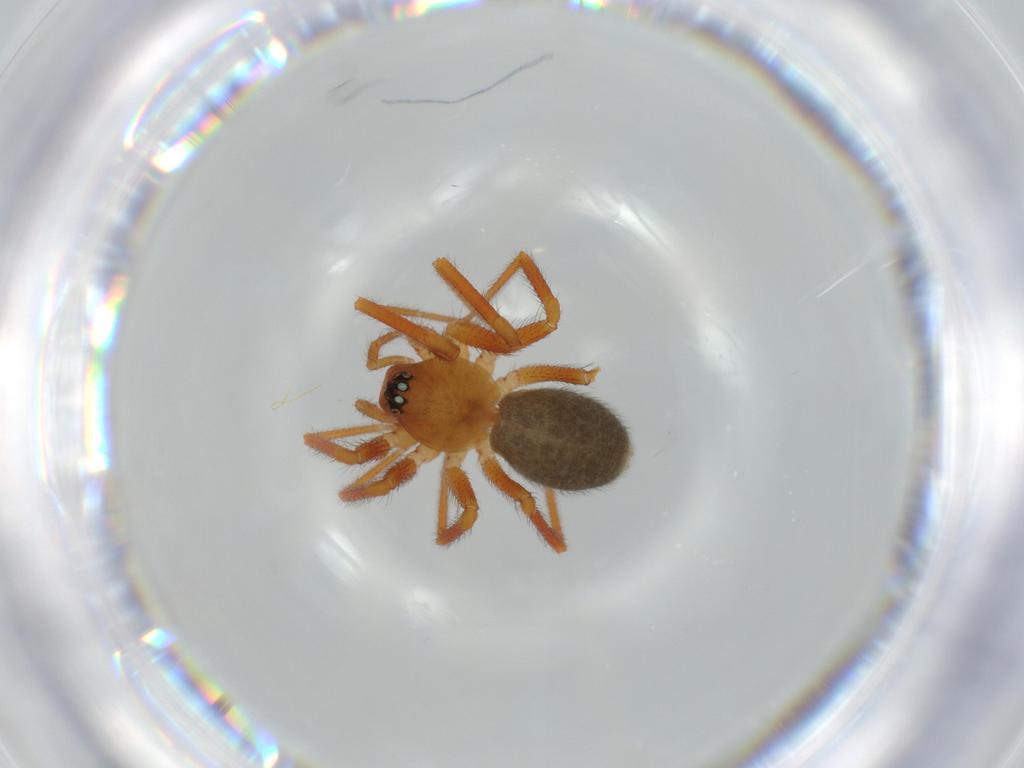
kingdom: Animalia
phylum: Arthropoda
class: Arachnida
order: Araneae
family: Linyphiidae
